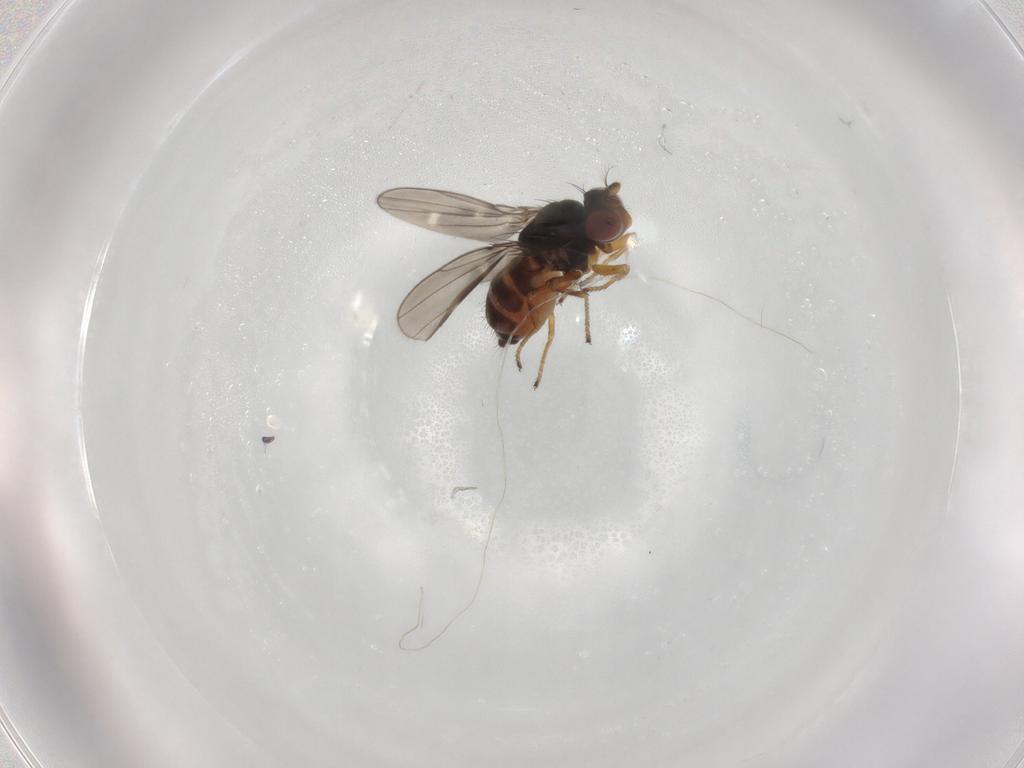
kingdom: Animalia
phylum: Arthropoda
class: Insecta
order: Diptera
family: Ephydridae
